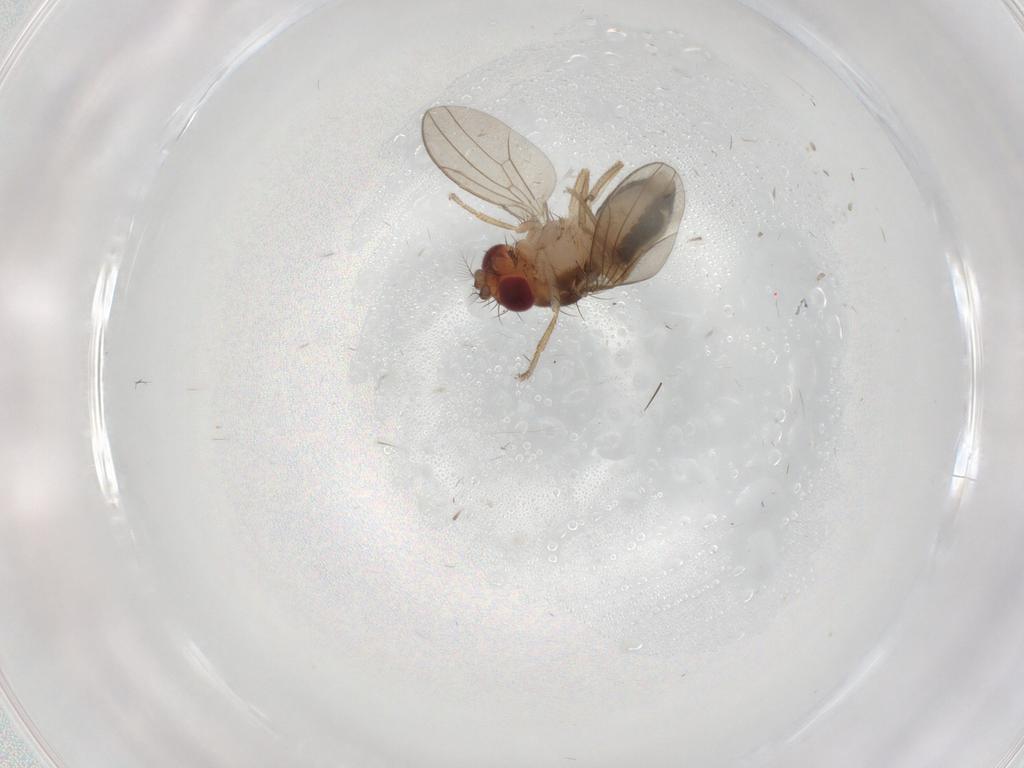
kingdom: Animalia
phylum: Arthropoda
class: Insecta
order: Diptera
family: Drosophilidae
